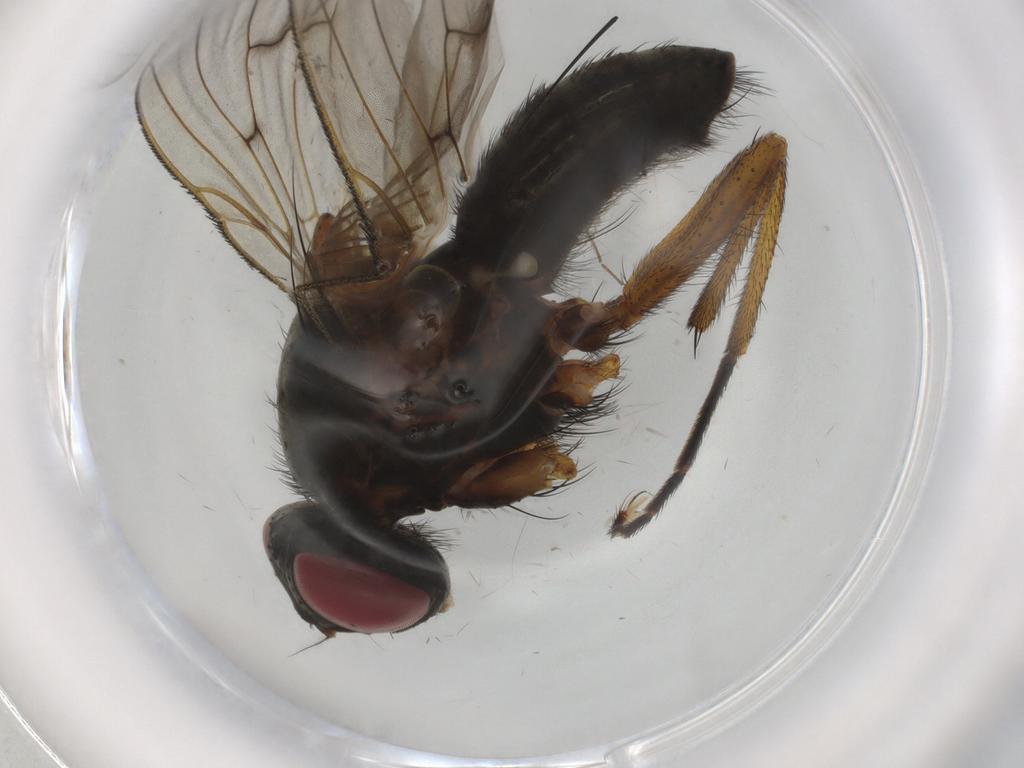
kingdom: Animalia
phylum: Arthropoda
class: Insecta
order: Diptera
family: Muscidae
